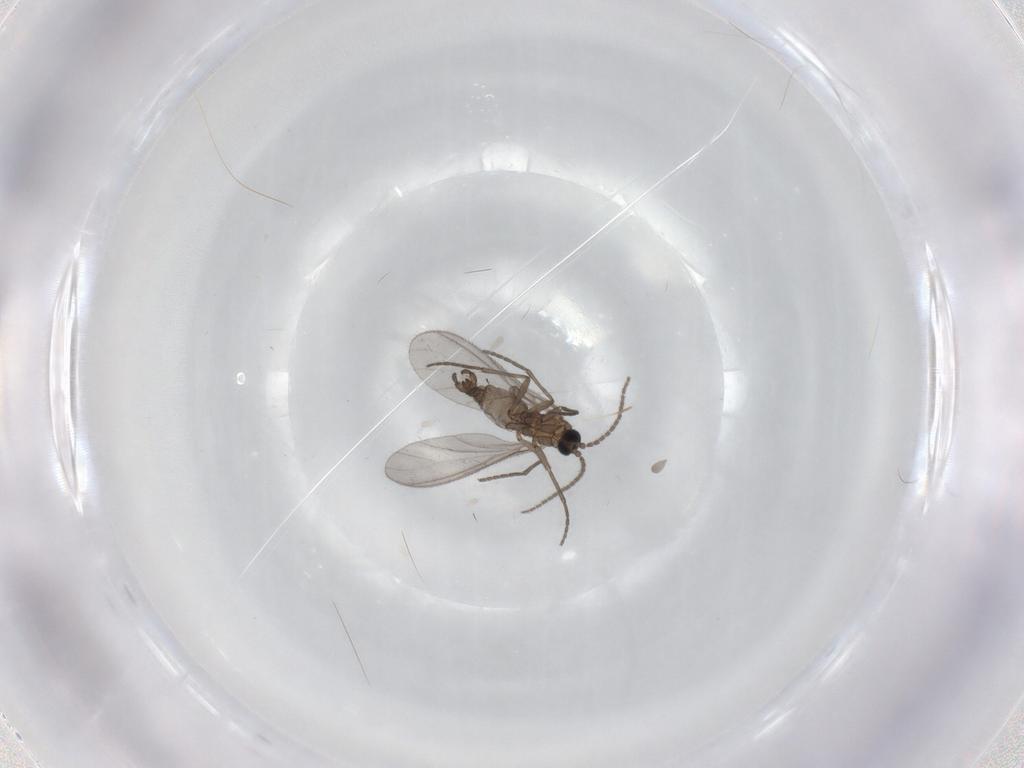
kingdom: Animalia
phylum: Arthropoda
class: Insecta
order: Diptera
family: Sciaridae
